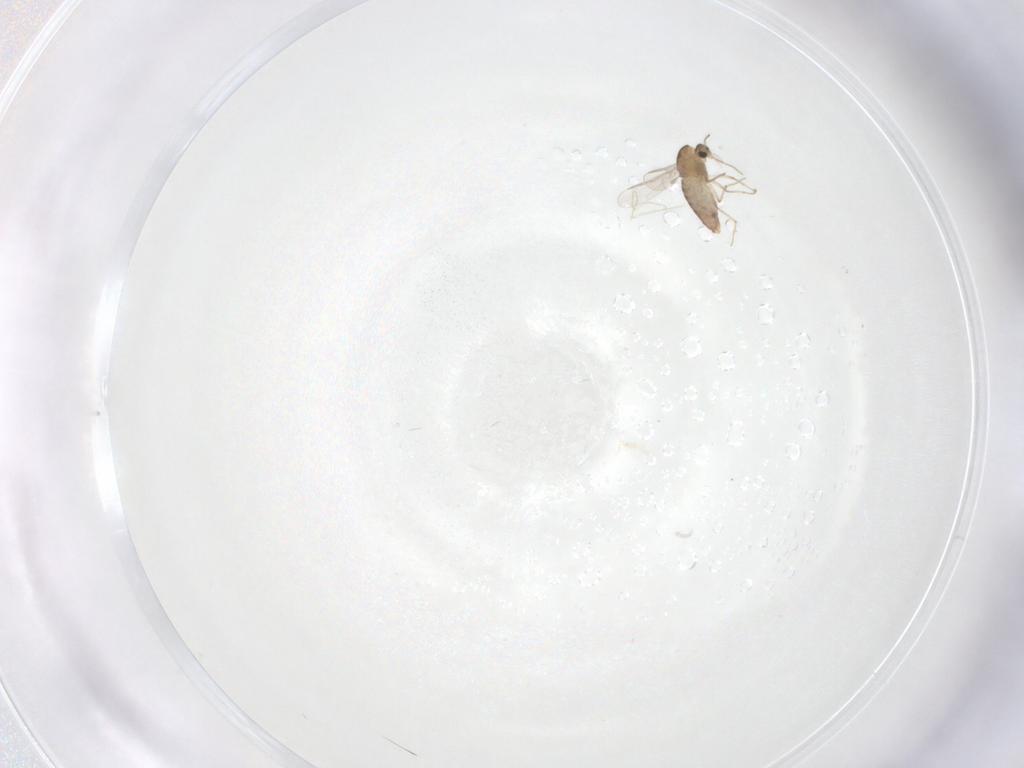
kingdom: Animalia
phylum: Arthropoda
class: Insecta
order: Diptera
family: Chironomidae
